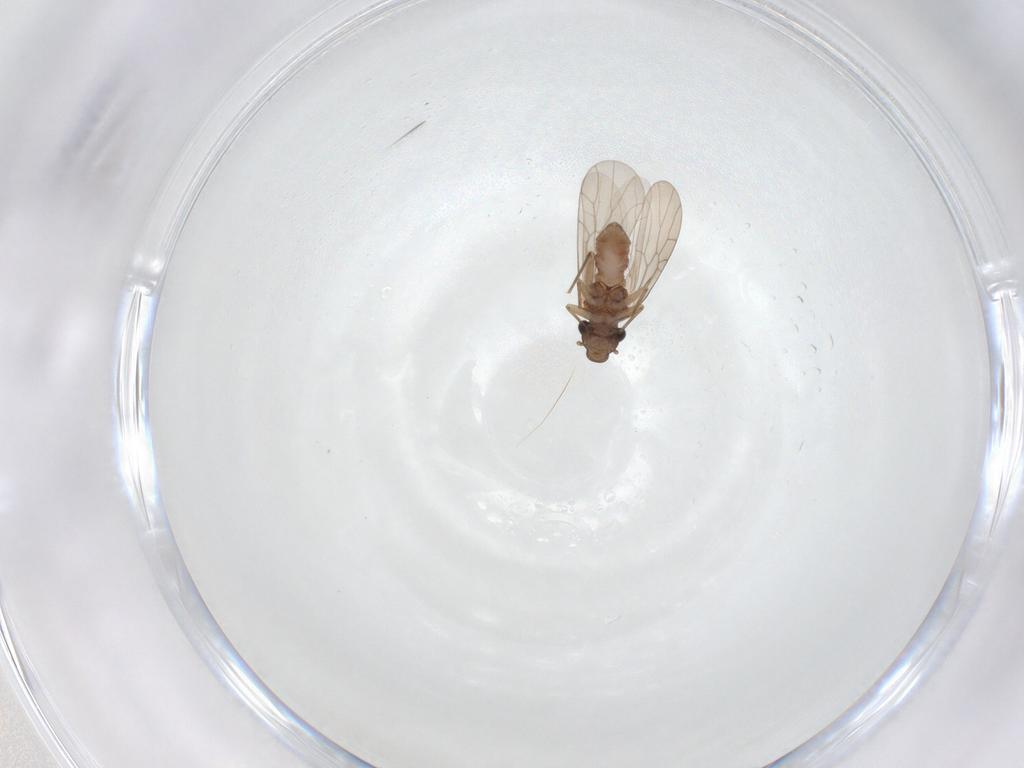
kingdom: Animalia
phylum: Arthropoda
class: Insecta
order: Psocodea
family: Lepidopsocidae
